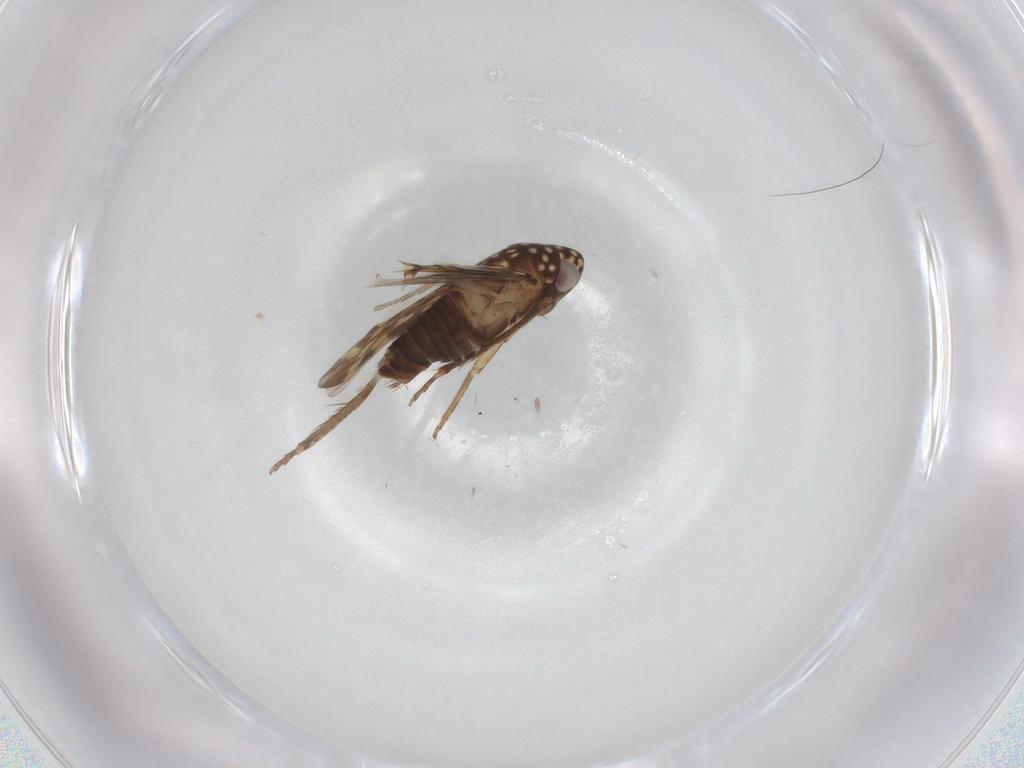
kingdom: Animalia
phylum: Arthropoda
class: Insecta
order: Hemiptera
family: Cicadellidae
